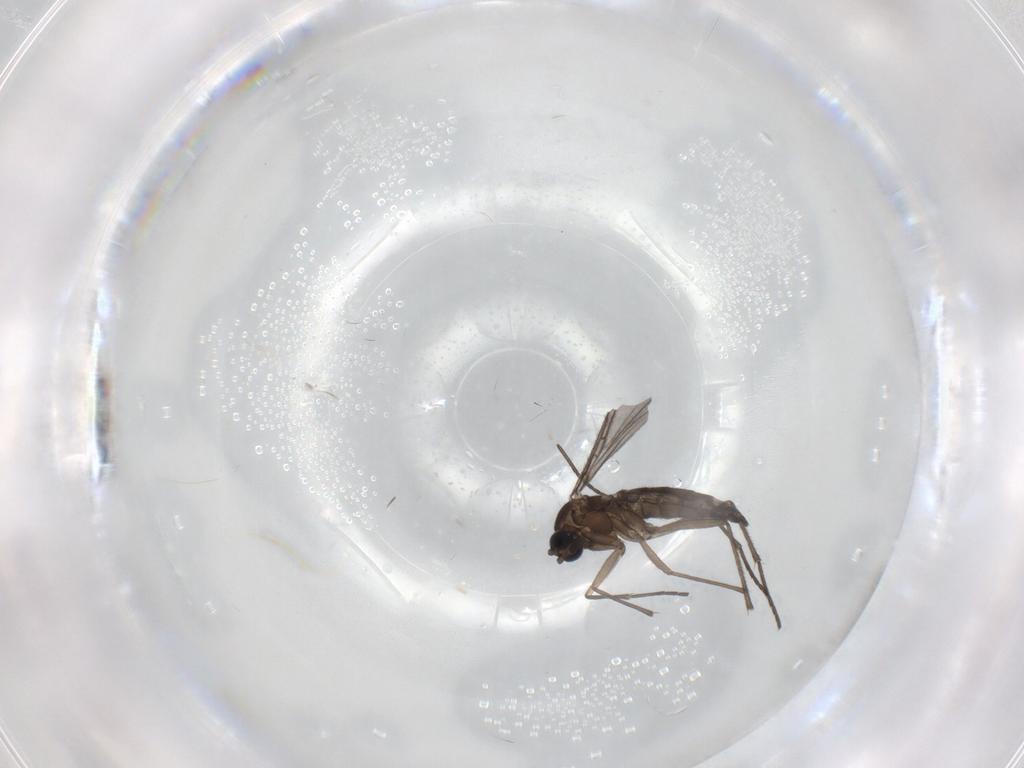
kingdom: Animalia
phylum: Arthropoda
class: Insecta
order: Diptera
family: Sciaridae
